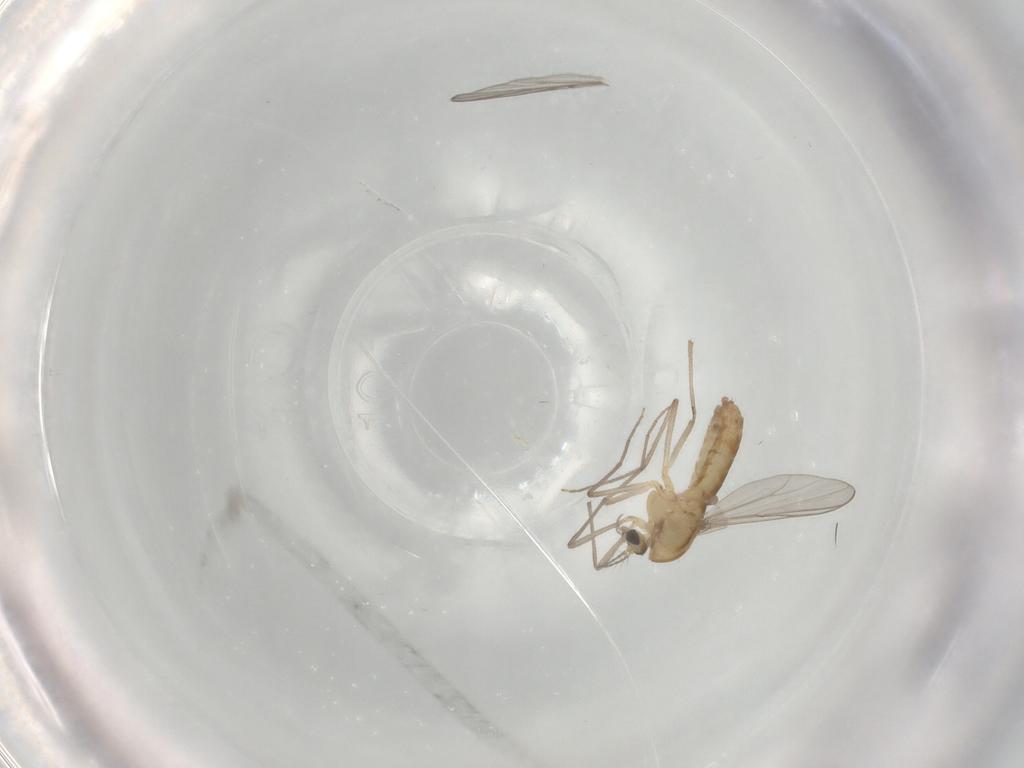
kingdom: Animalia
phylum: Arthropoda
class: Insecta
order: Diptera
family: Chironomidae
